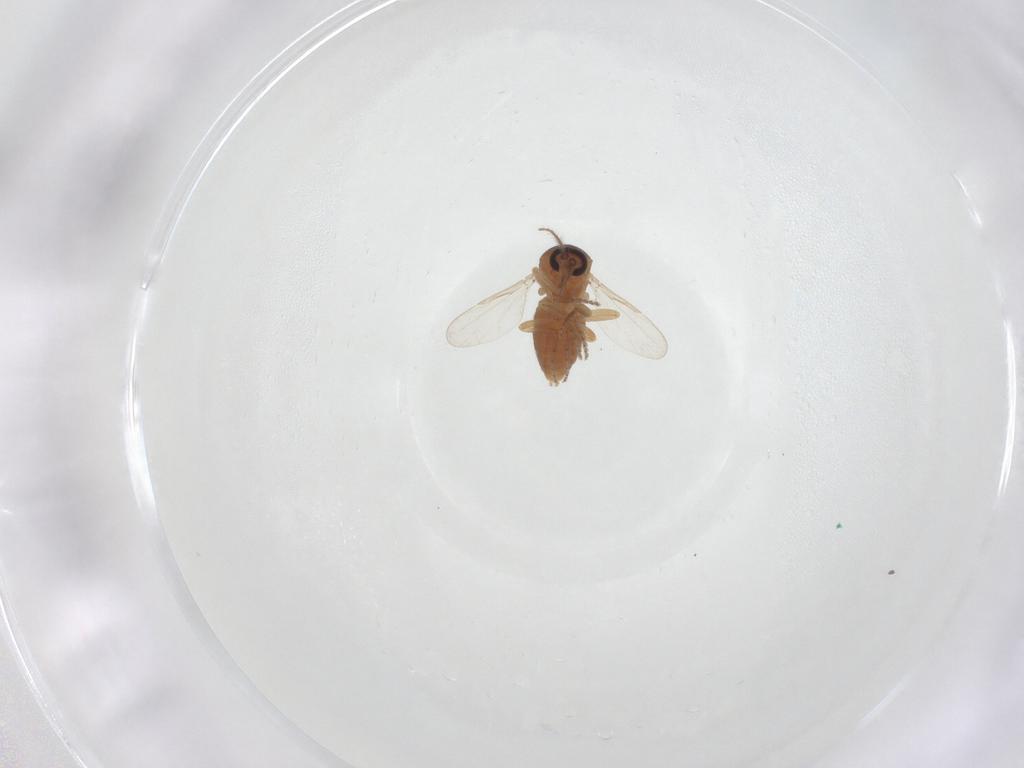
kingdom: Animalia
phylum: Arthropoda
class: Insecta
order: Diptera
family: Ceratopogonidae
